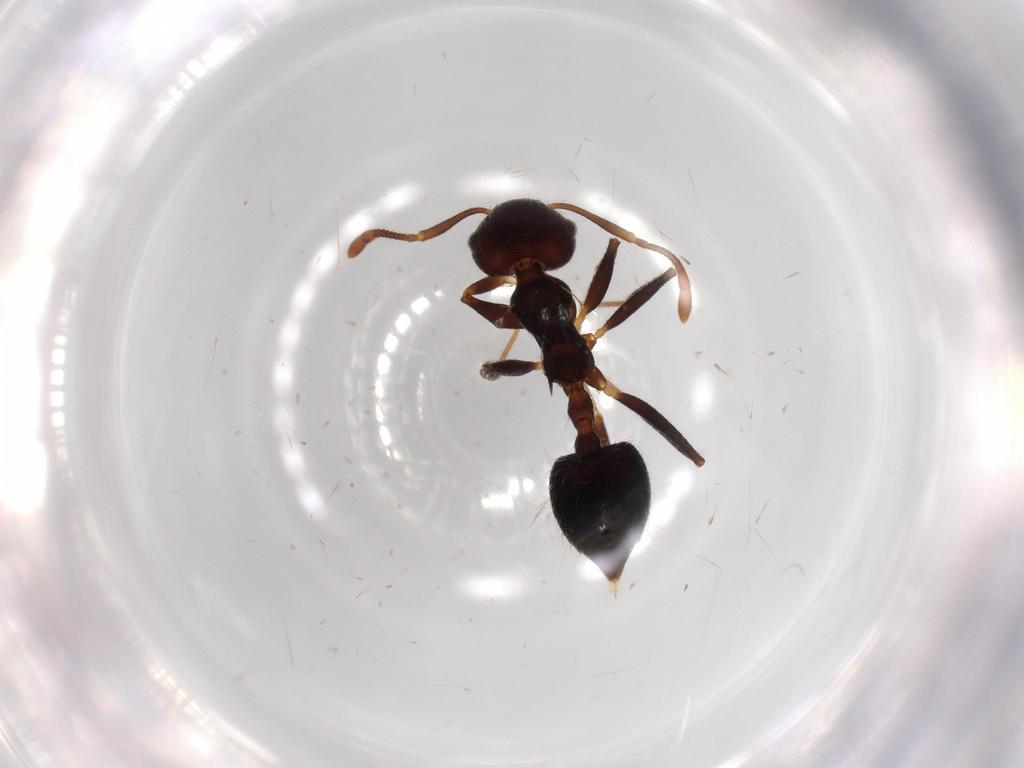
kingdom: Animalia
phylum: Arthropoda
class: Insecta
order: Hymenoptera
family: Formicidae
